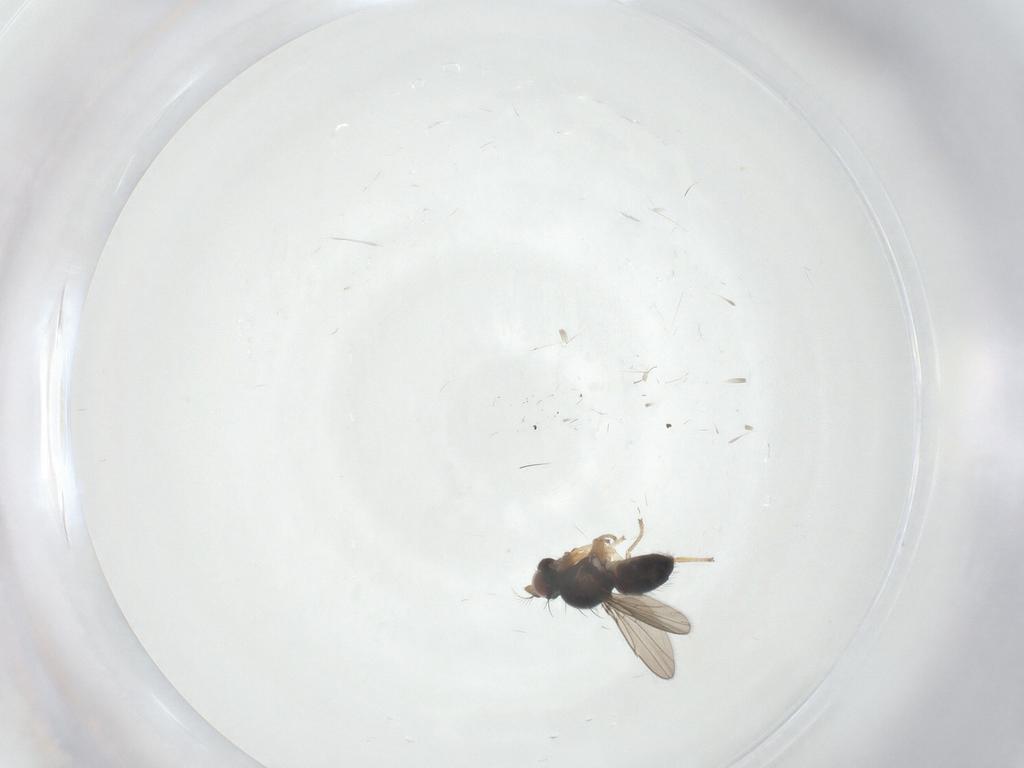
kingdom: Animalia
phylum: Arthropoda
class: Insecta
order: Diptera
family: Ephydridae
